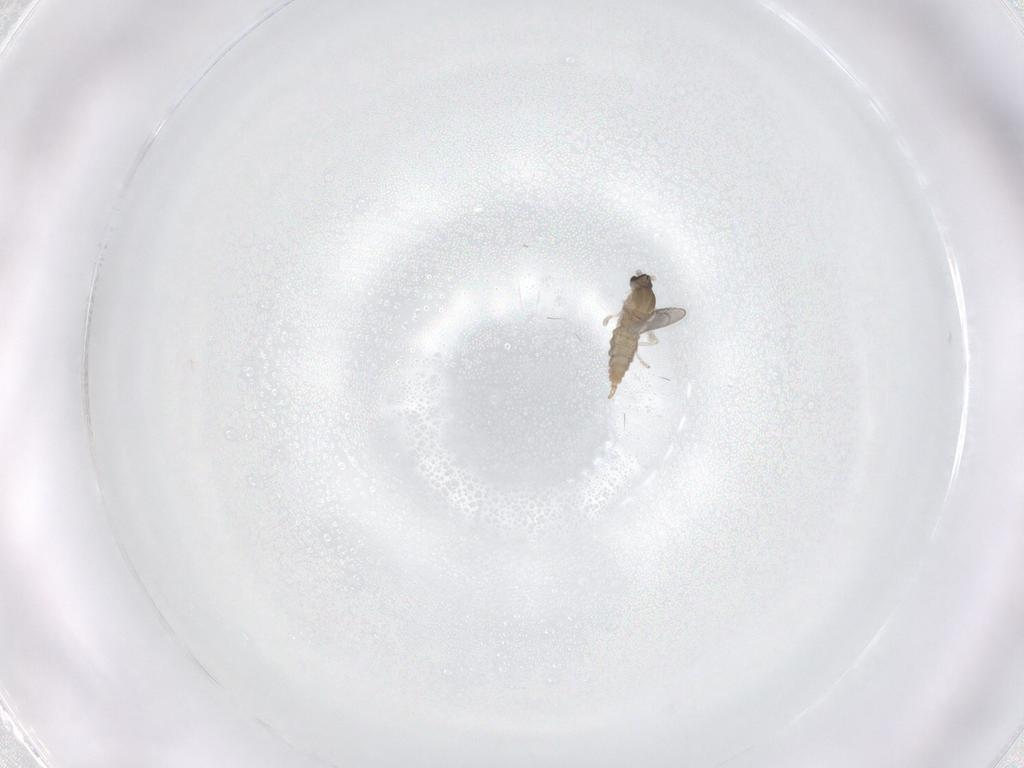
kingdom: Animalia
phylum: Arthropoda
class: Insecta
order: Diptera
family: Cecidomyiidae
